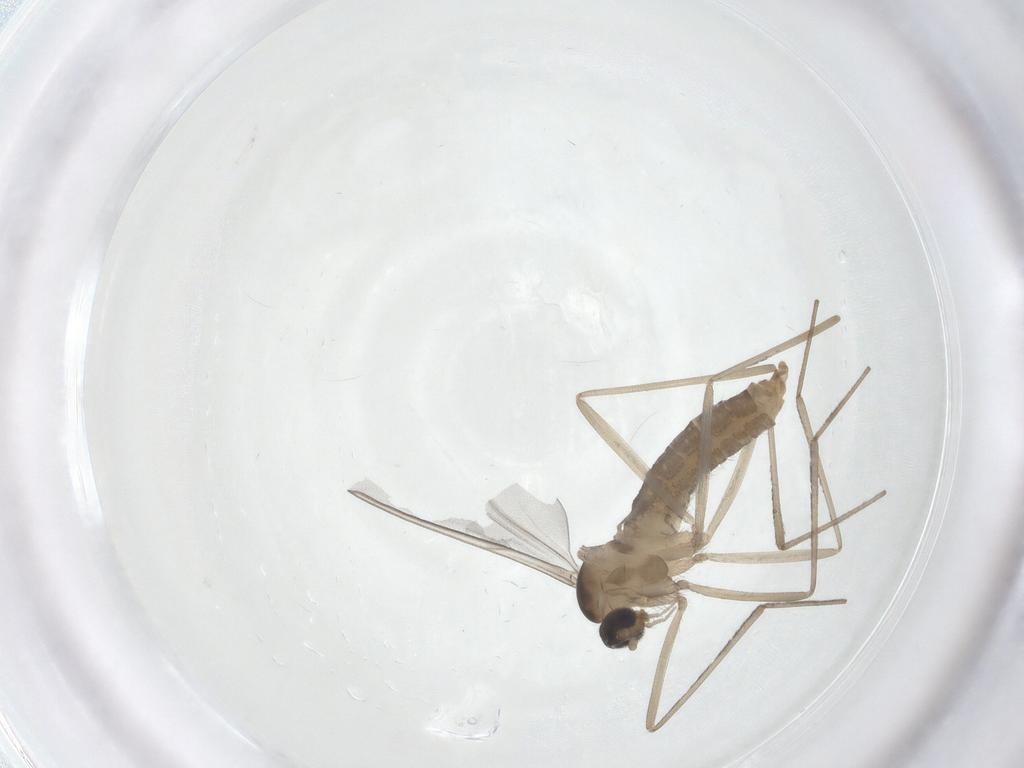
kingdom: Animalia
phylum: Arthropoda
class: Insecta
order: Diptera
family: Cecidomyiidae
